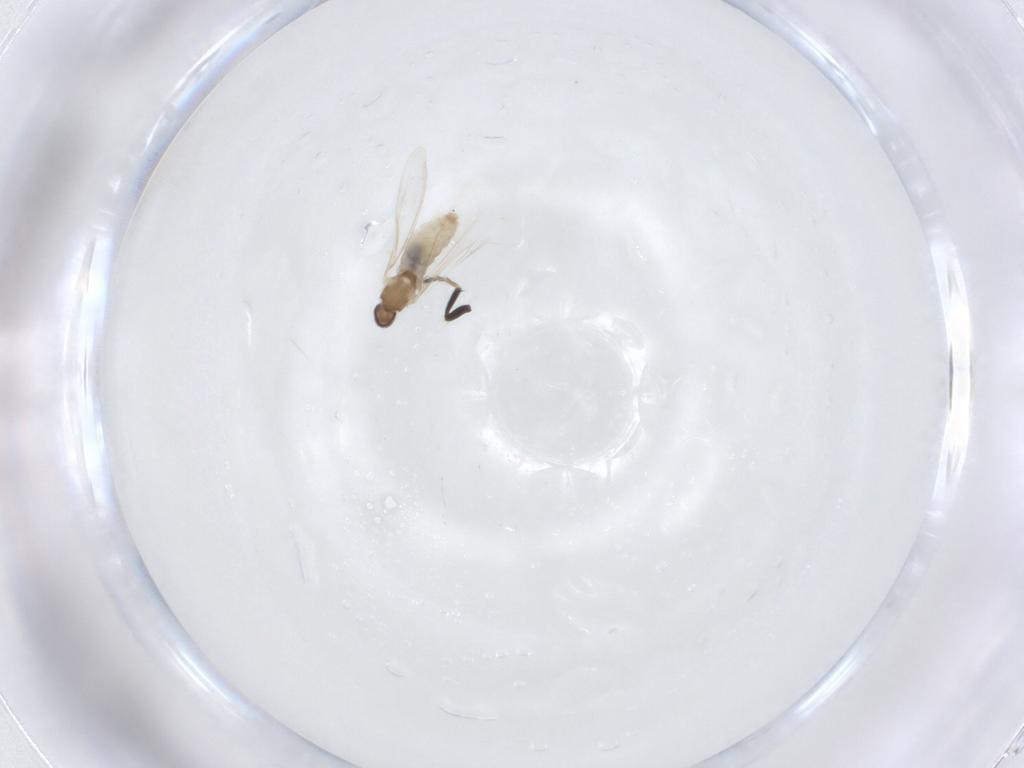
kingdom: Animalia
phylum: Arthropoda
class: Insecta
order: Diptera
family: Cecidomyiidae
